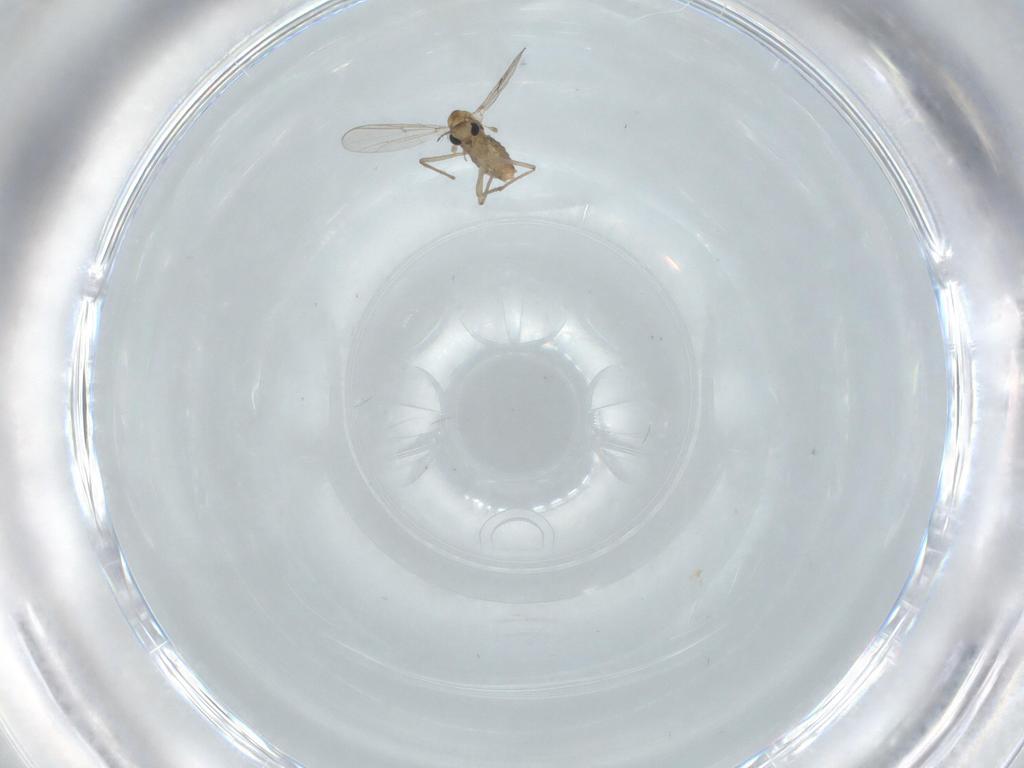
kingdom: Animalia
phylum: Arthropoda
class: Insecta
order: Diptera
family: Chironomidae
